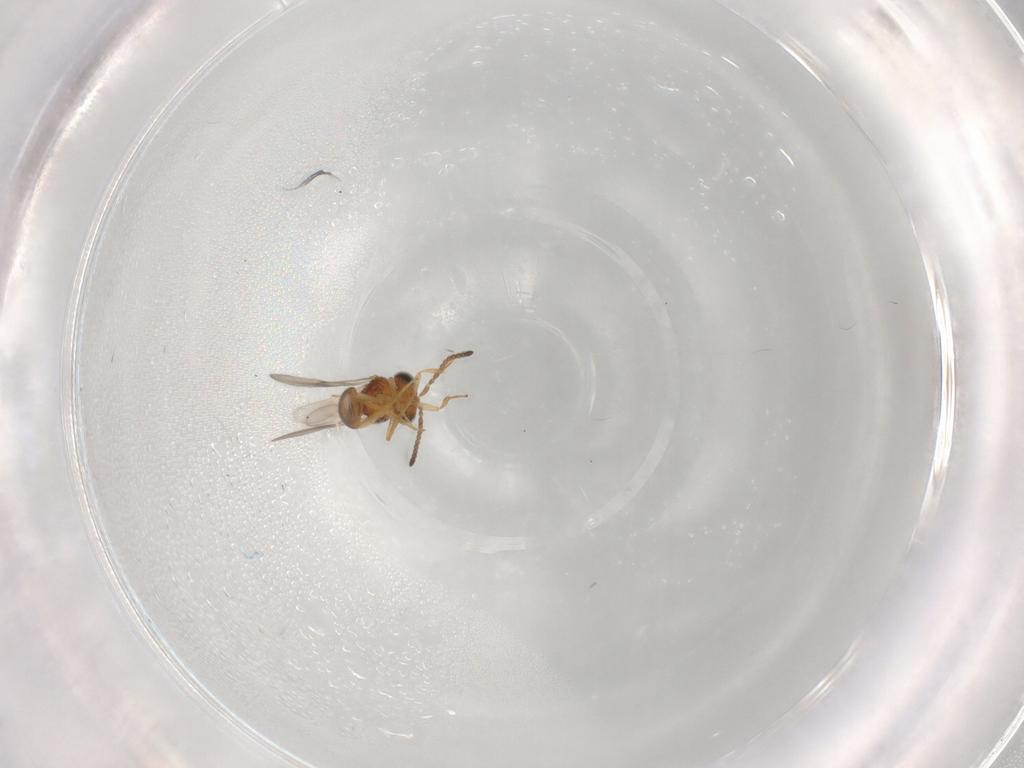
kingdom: Animalia
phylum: Arthropoda
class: Insecta
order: Hymenoptera
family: Scelionidae
